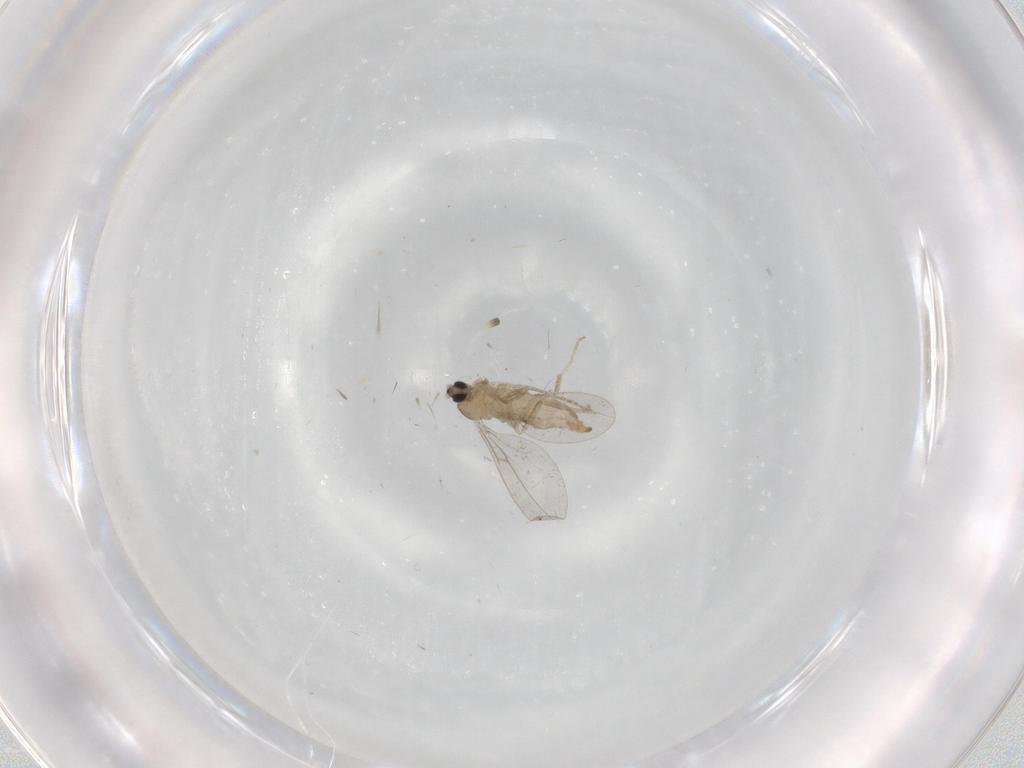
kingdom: Animalia
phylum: Arthropoda
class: Insecta
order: Diptera
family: Cecidomyiidae
